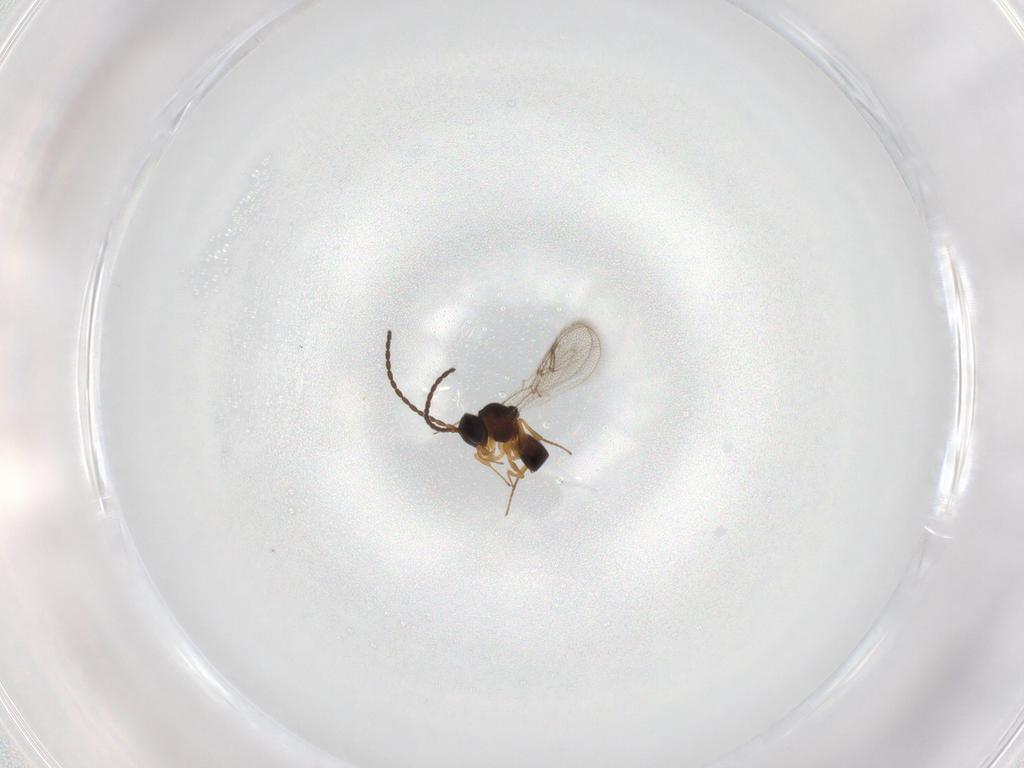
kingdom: Animalia
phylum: Arthropoda
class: Insecta
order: Hymenoptera
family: Figitidae
